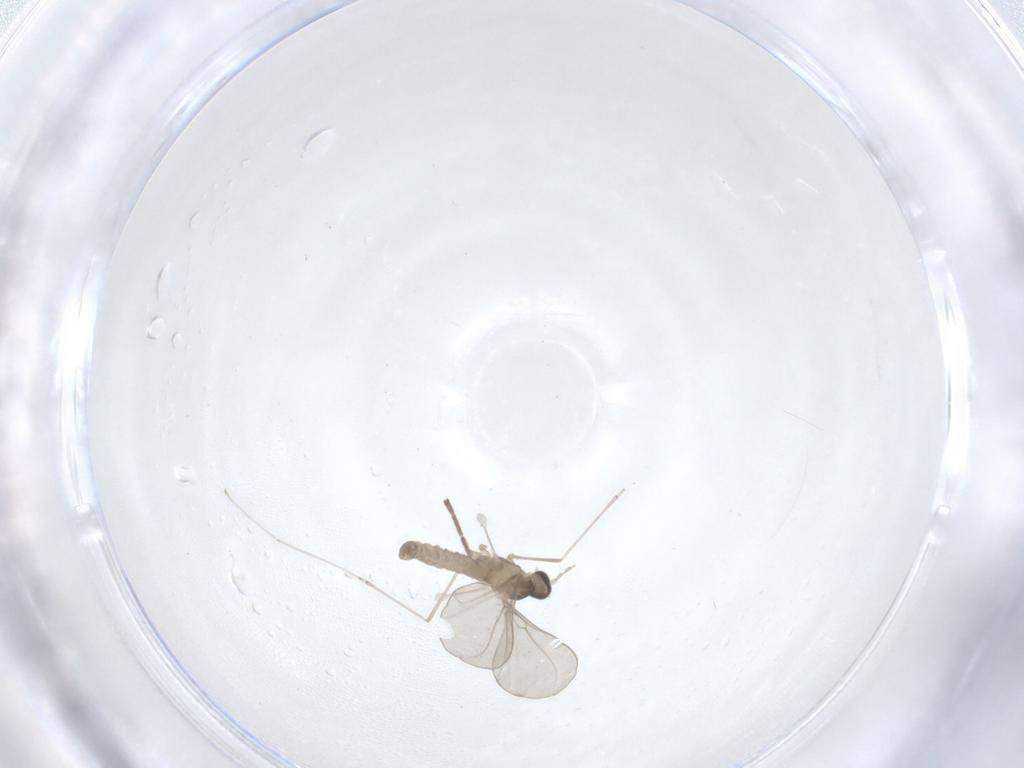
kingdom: Animalia
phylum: Arthropoda
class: Insecta
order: Diptera
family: Cecidomyiidae
